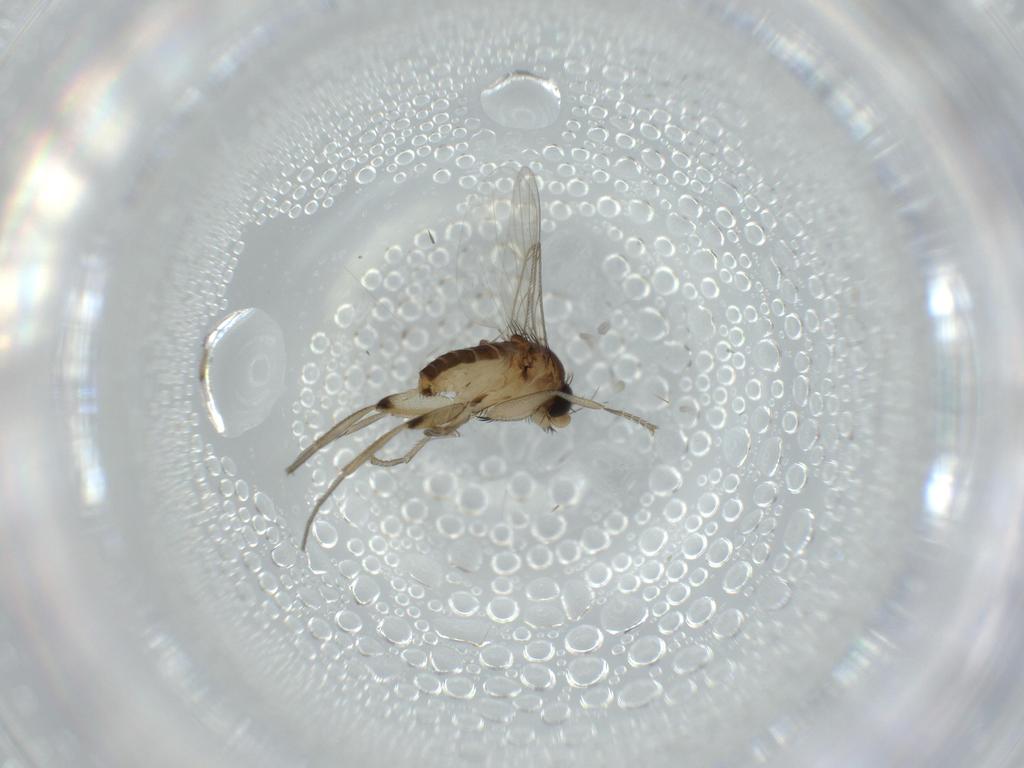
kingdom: Animalia
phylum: Arthropoda
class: Insecta
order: Diptera
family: Phoridae
